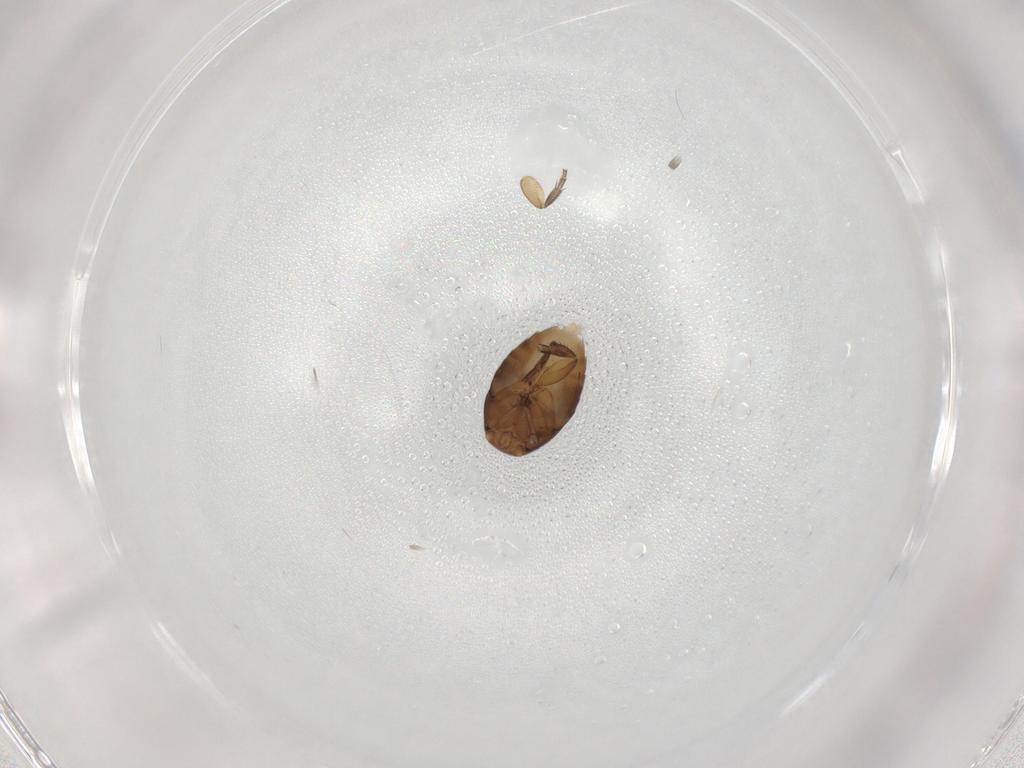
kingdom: Animalia
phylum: Arthropoda
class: Insecta
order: Diptera
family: Phoridae
